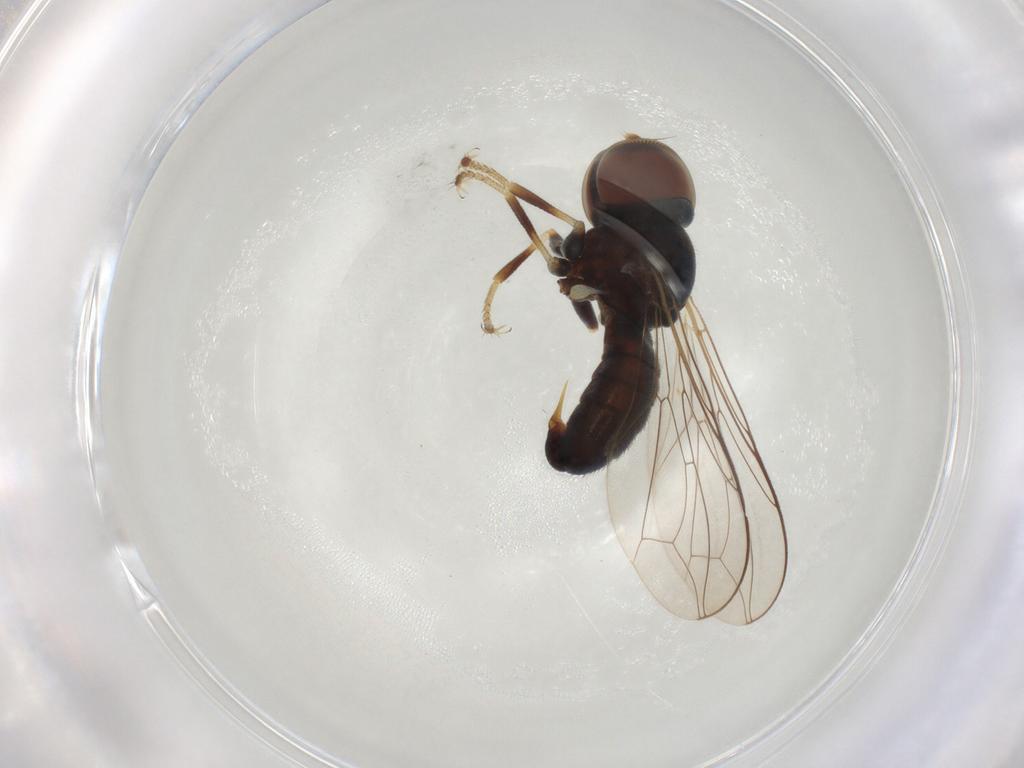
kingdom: Animalia
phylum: Arthropoda
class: Insecta
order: Diptera
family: Pipunculidae
